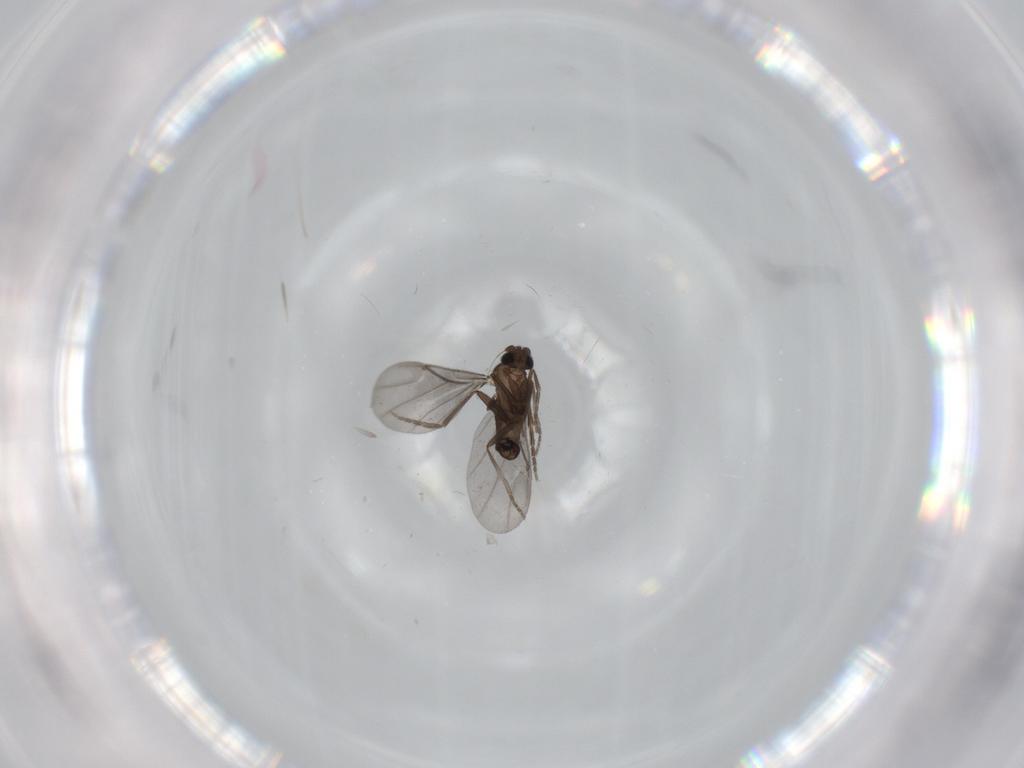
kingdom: Animalia
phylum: Arthropoda
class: Insecta
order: Diptera
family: Phoridae
